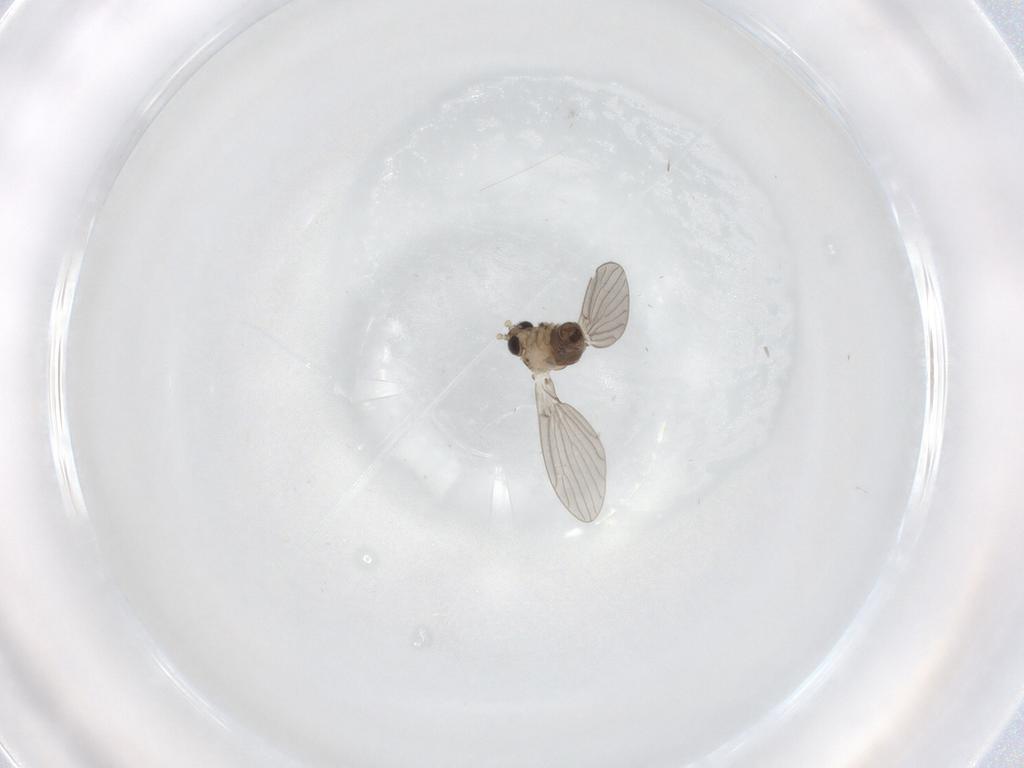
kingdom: Animalia
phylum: Arthropoda
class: Insecta
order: Diptera
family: Psychodidae
